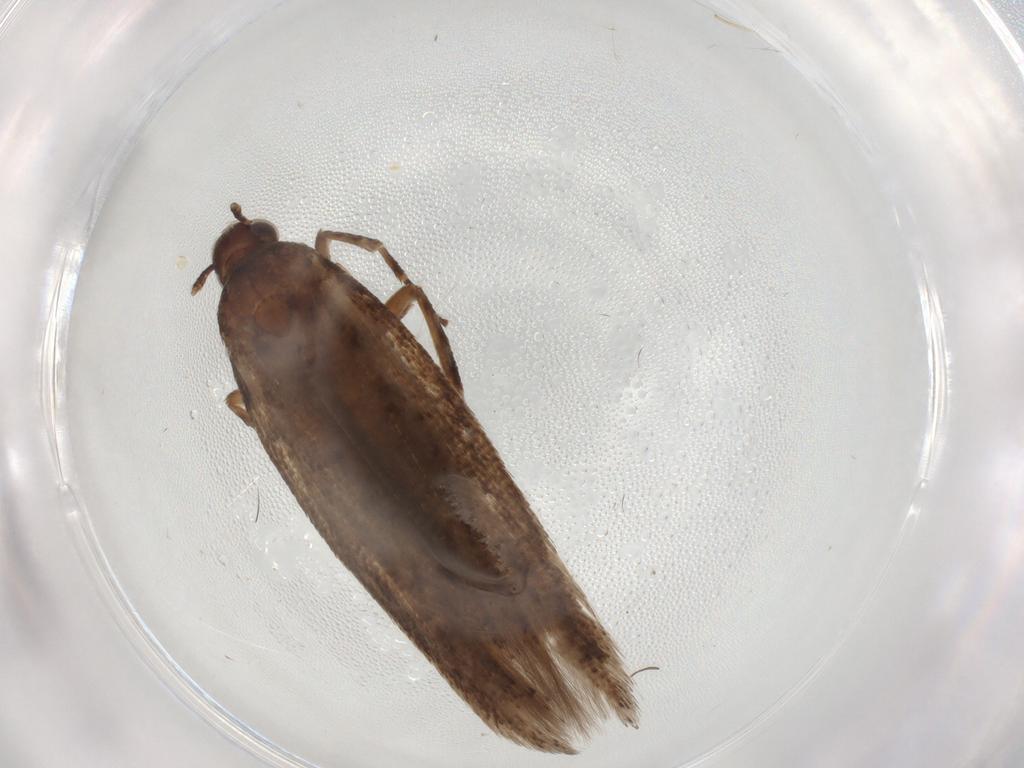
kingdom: Animalia
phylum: Arthropoda
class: Insecta
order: Lepidoptera
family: Gelechiidae
